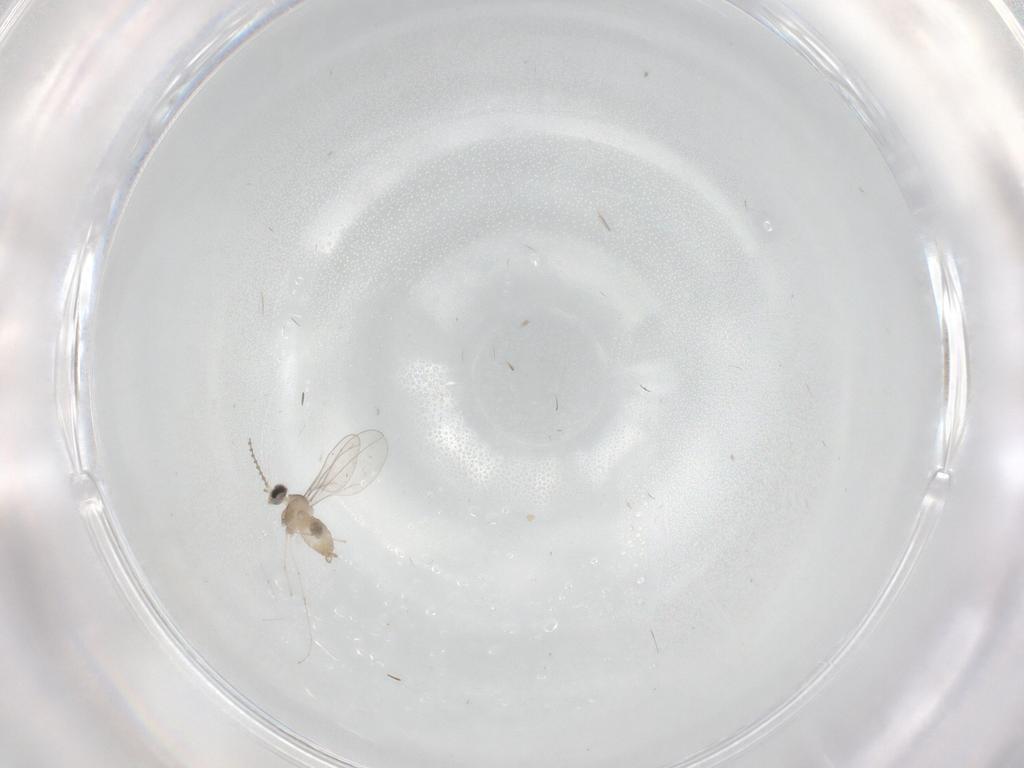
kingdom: Animalia
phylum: Arthropoda
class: Insecta
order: Diptera
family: Cecidomyiidae
